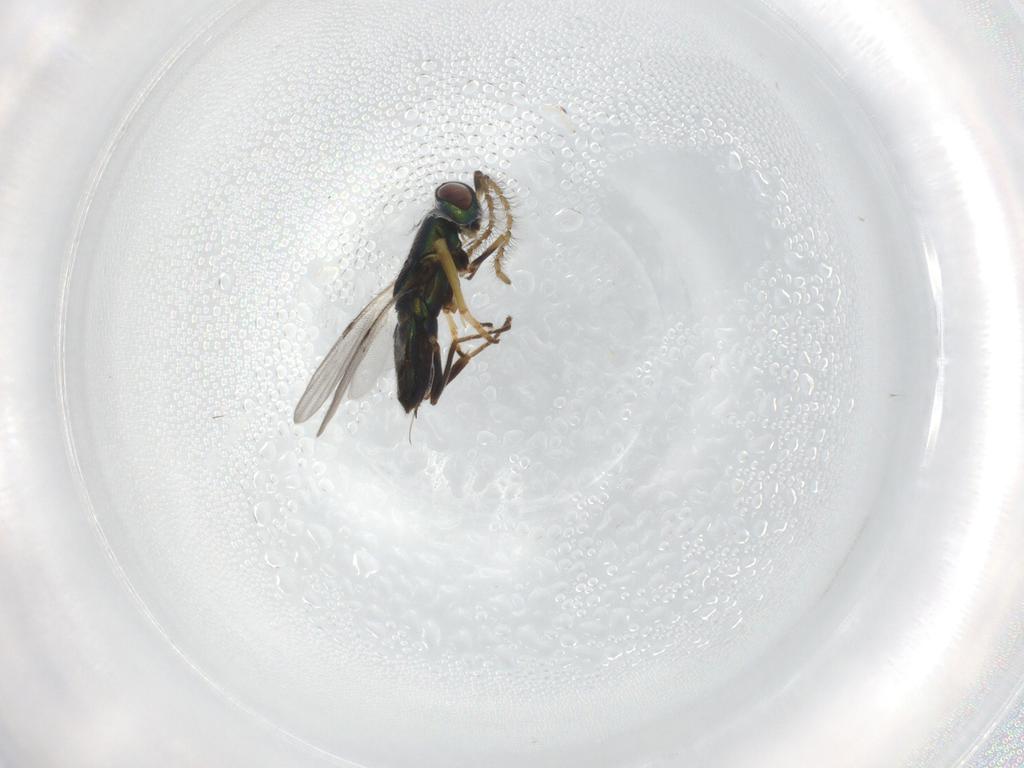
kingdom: Animalia
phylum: Arthropoda
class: Insecta
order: Hymenoptera
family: Encyrtidae
